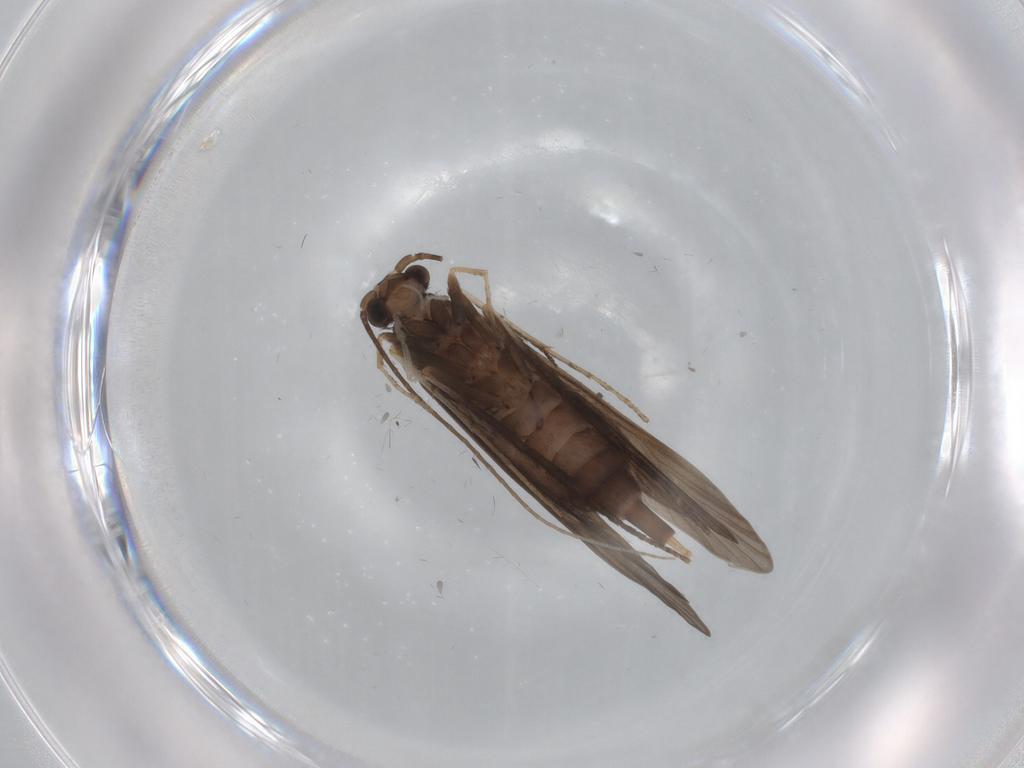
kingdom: Animalia
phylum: Arthropoda
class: Insecta
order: Trichoptera
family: Xiphocentronidae
